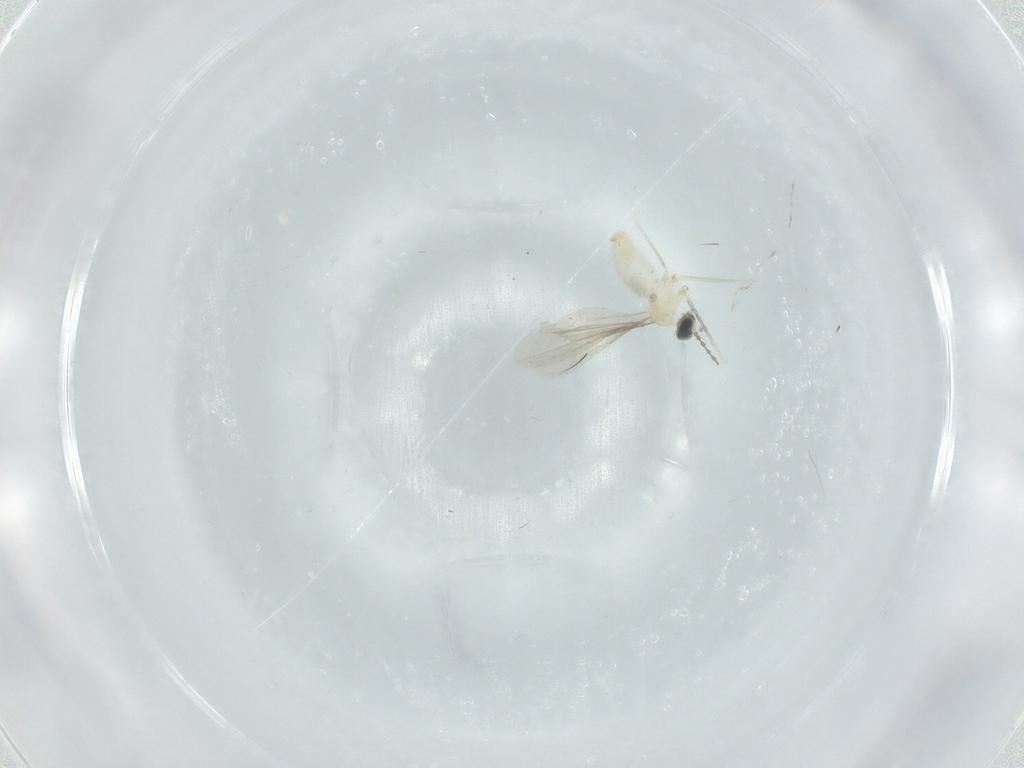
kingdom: Animalia
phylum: Arthropoda
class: Insecta
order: Diptera
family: Cecidomyiidae
